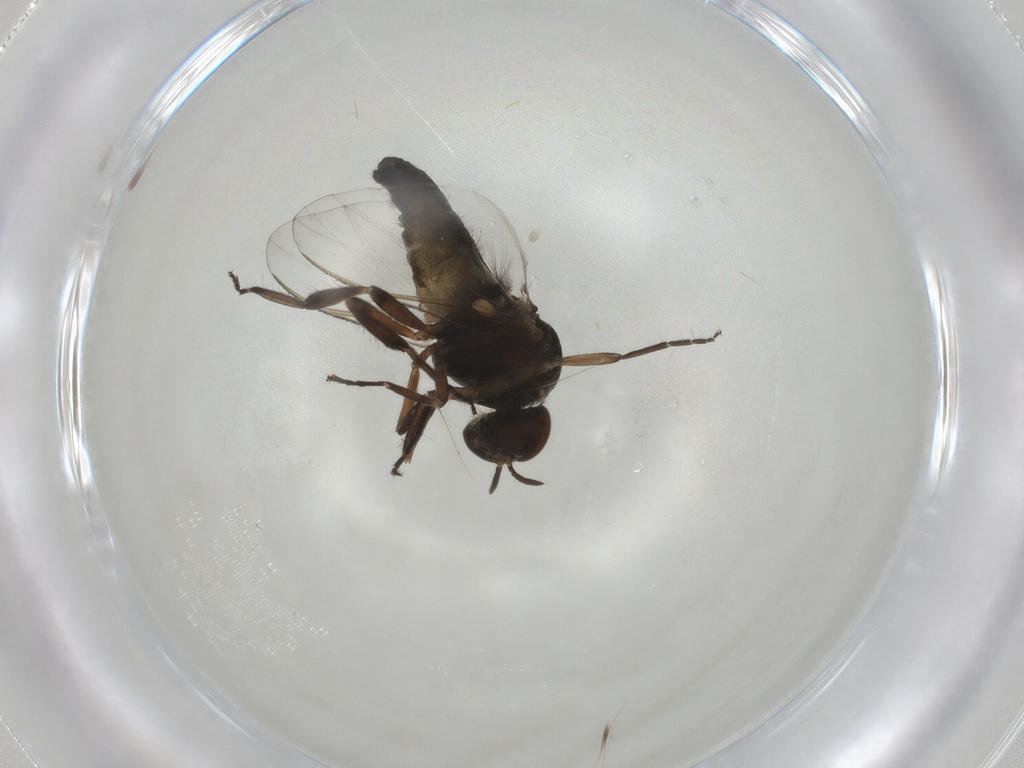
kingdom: Animalia
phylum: Arthropoda
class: Insecta
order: Diptera
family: Chironomidae
